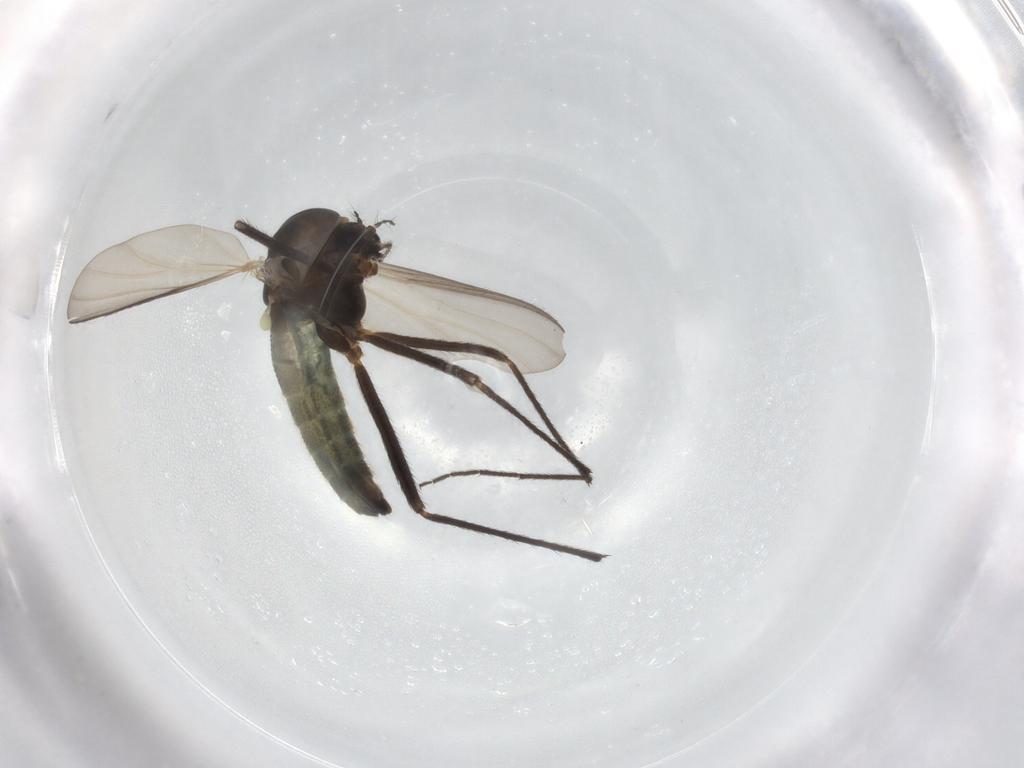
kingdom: Animalia
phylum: Arthropoda
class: Insecta
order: Diptera
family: Chironomidae
